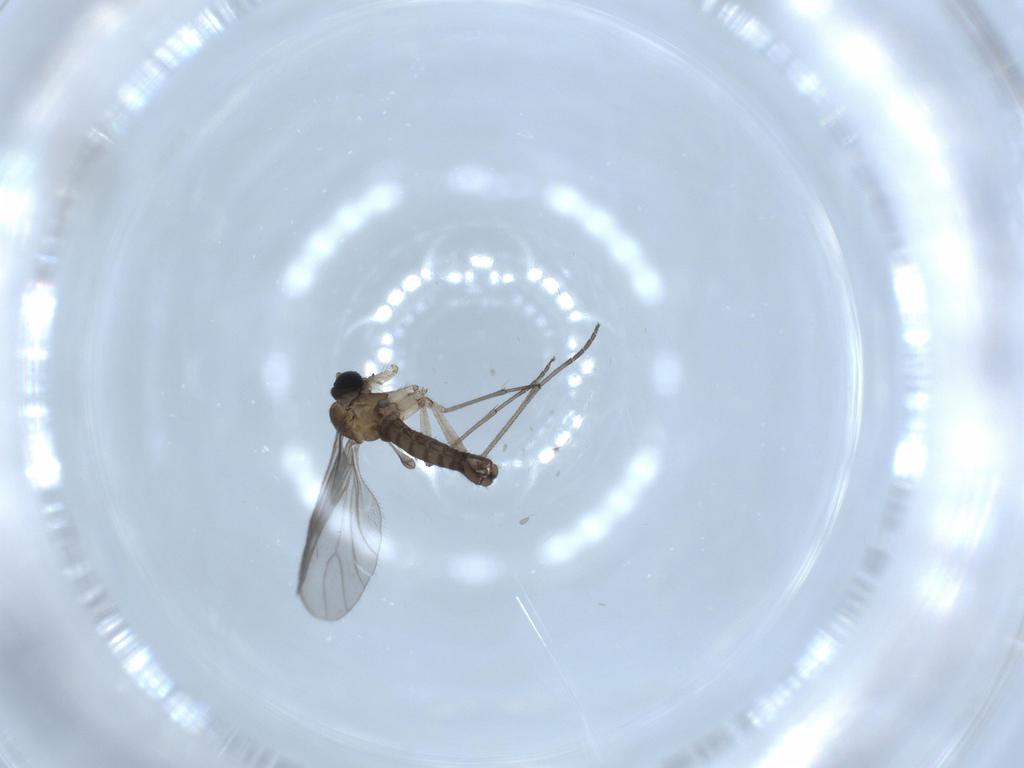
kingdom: Animalia
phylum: Arthropoda
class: Insecta
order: Diptera
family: Cecidomyiidae
